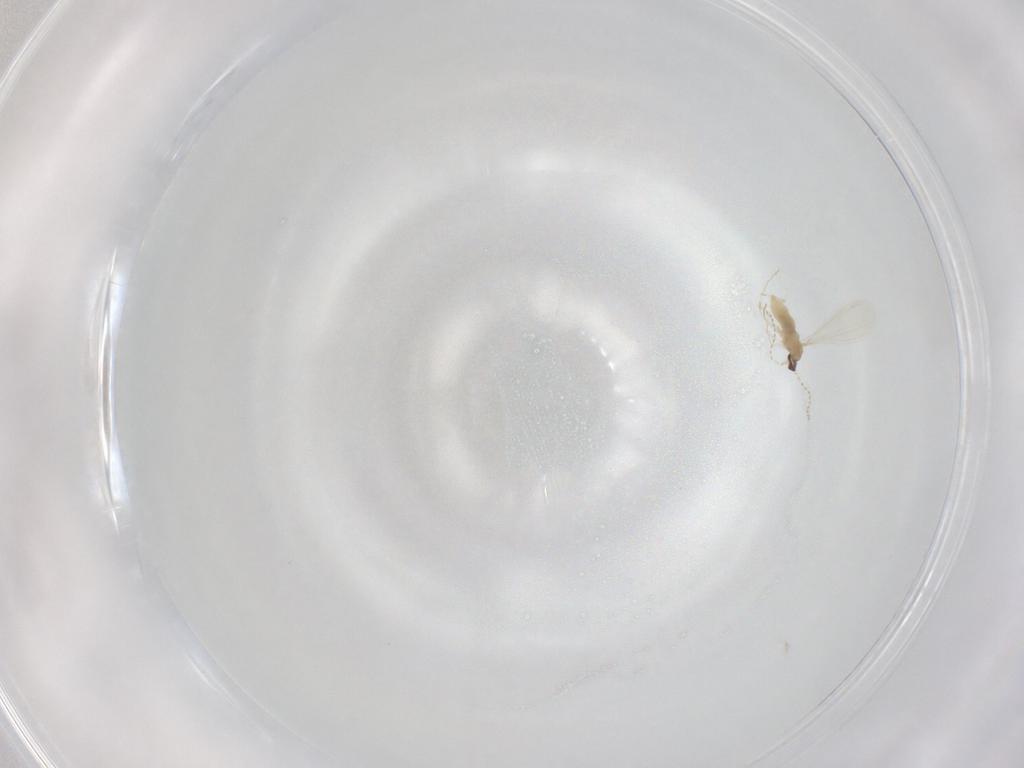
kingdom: Animalia
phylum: Arthropoda
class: Insecta
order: Diptera
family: Cecidomyiidae
